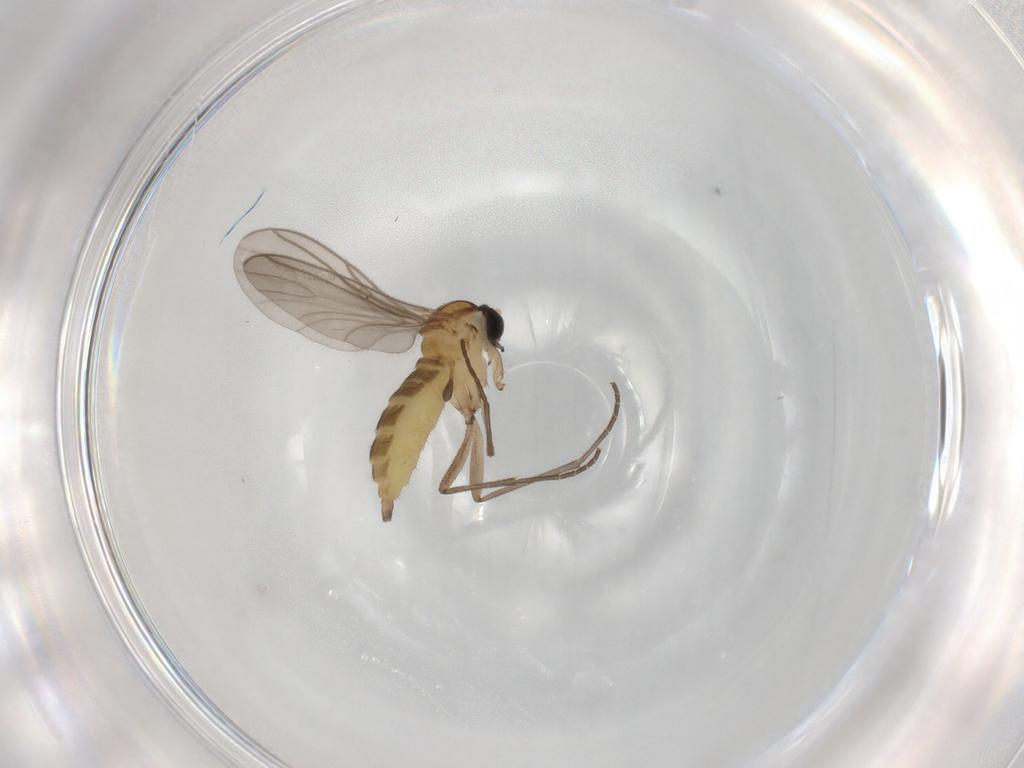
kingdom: Animalia
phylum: Arthropoda
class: Insecta
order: Diptera
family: Sciaridae
